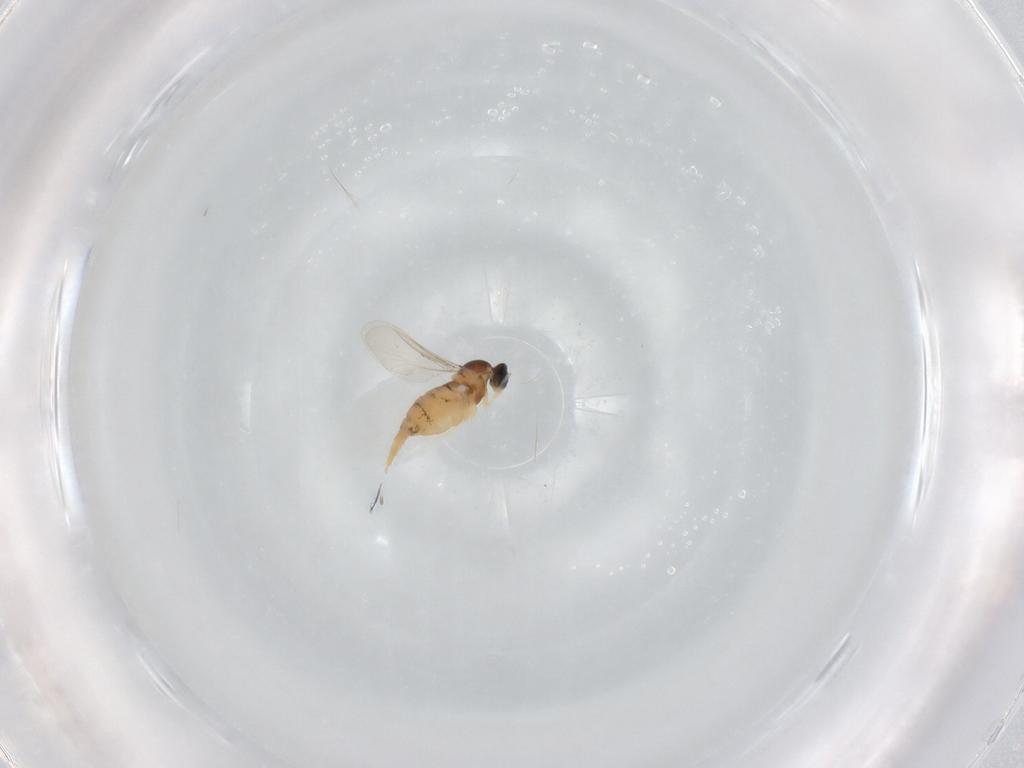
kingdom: Animalia
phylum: Arthropoda
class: Insecta
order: Diptera
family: Cecidomyiidae
